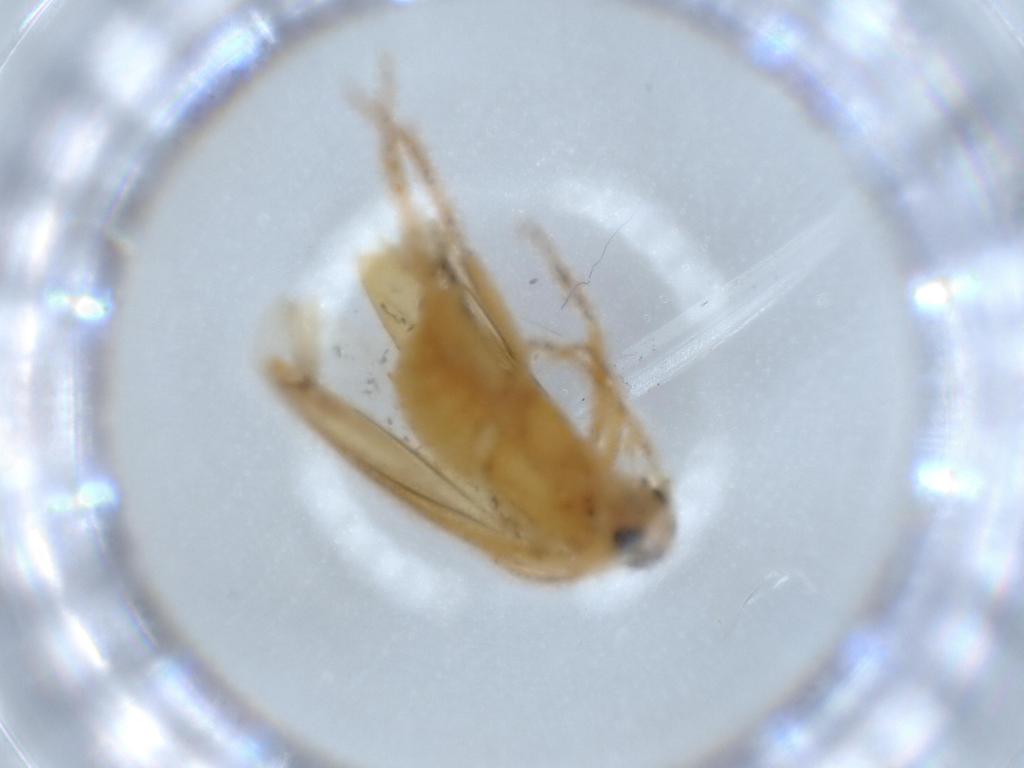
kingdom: Animalia
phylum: Arthropoda
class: Insecta
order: Coleoptera
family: Scraptiidae
